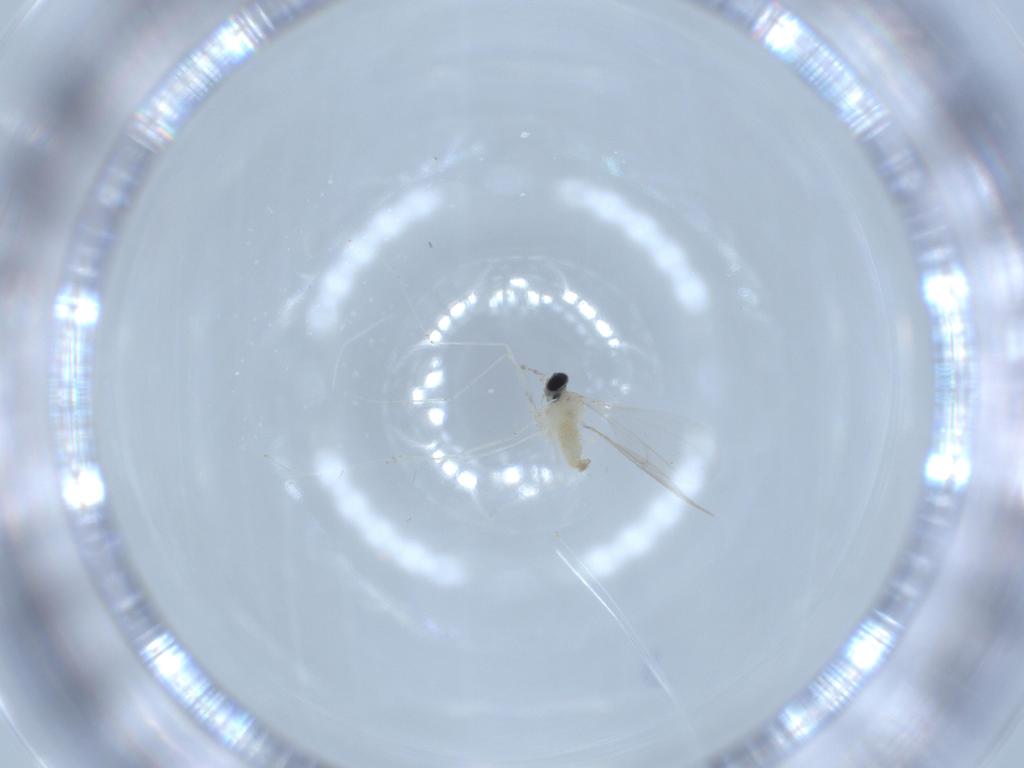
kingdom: Animalia
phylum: Arthropoda
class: Insecta
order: Diptera
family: Cecidomyiidae
